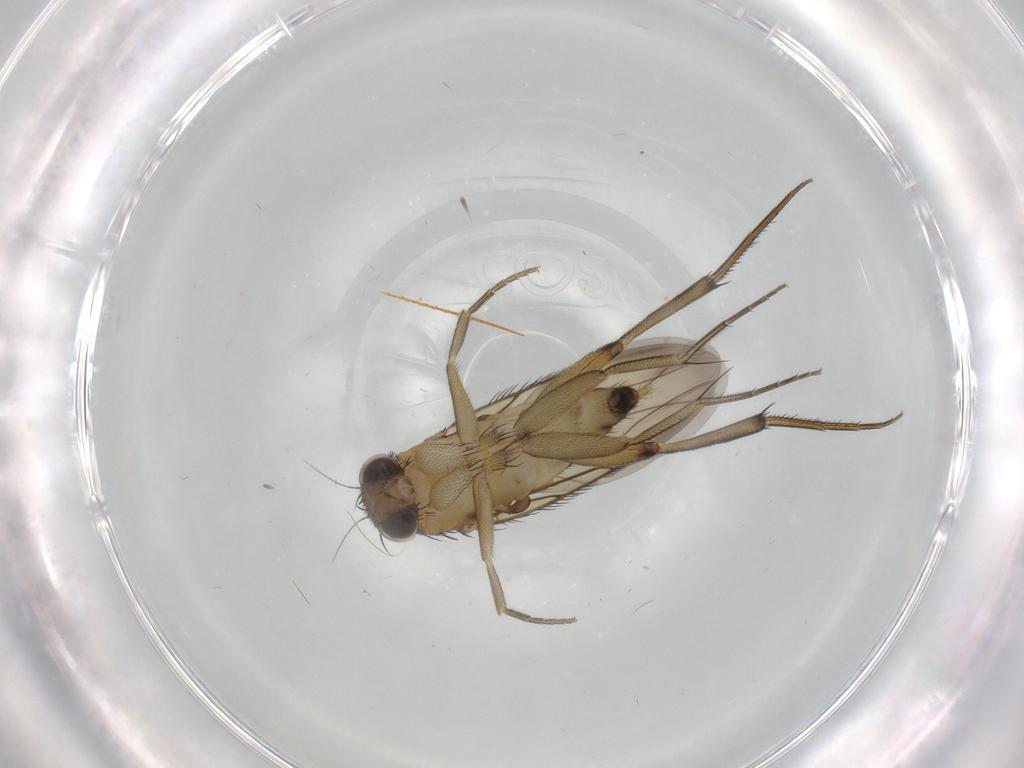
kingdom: Animalia
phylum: Arthropoda
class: Insecta
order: Diptera
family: Phoridae
